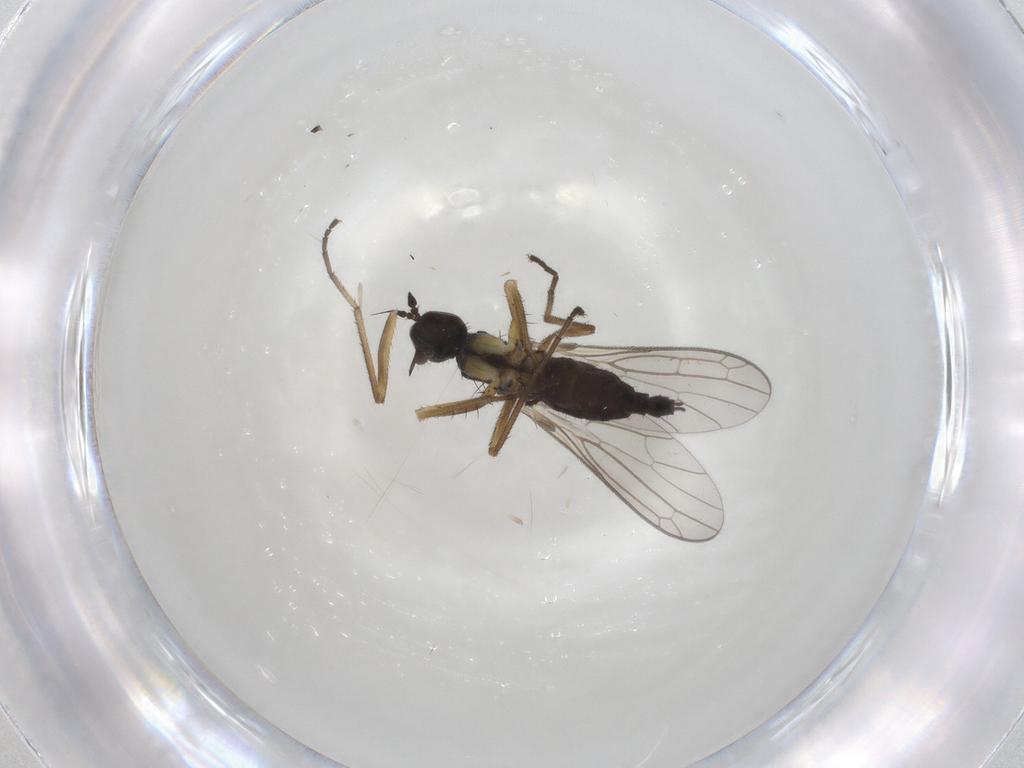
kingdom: Animalia
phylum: Arthropoda
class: Insecta
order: Diptera
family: Chironomidae
